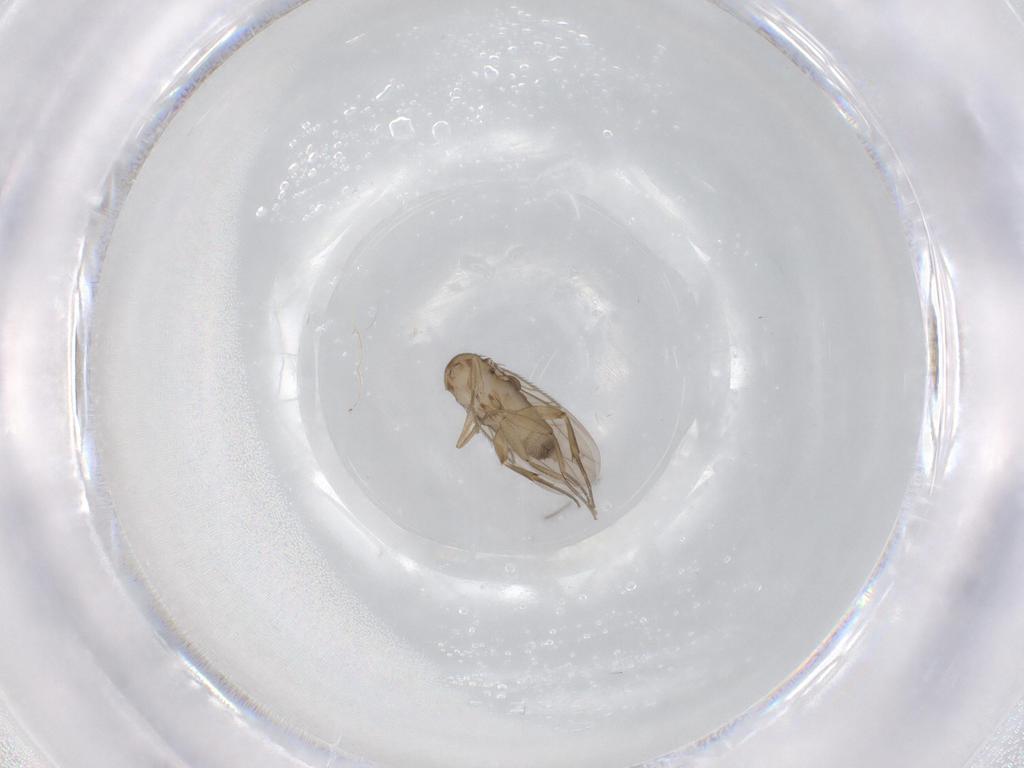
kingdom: Animalia
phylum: Arthropoda
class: Insecta
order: Diptera
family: Phoridae
